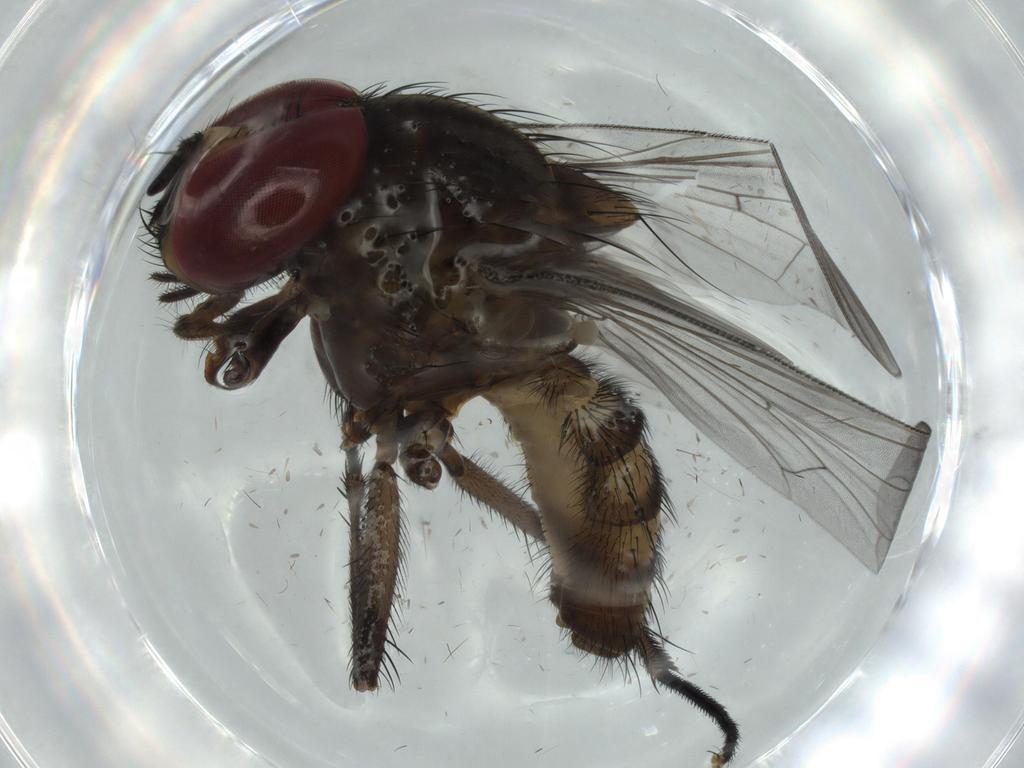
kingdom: Animalia
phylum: Arthropoda
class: Insecta
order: Diptera
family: Chloropidae
